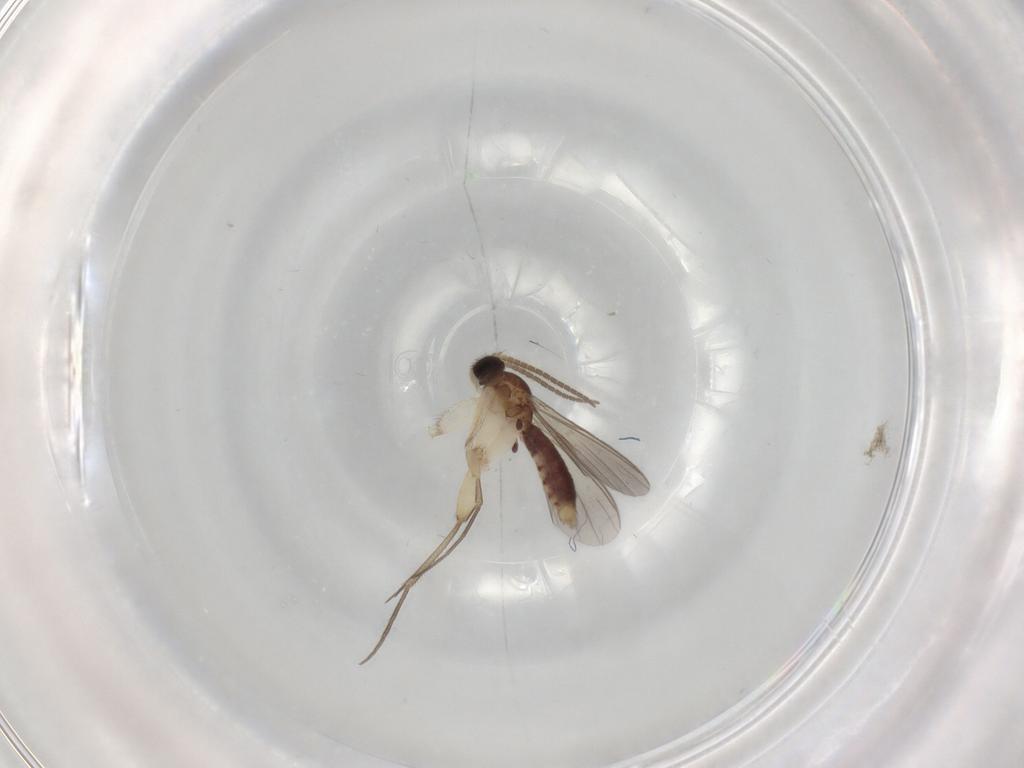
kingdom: Animalia
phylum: Arthropoda
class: Insecta
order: Diptera
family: Mycetophilidae
